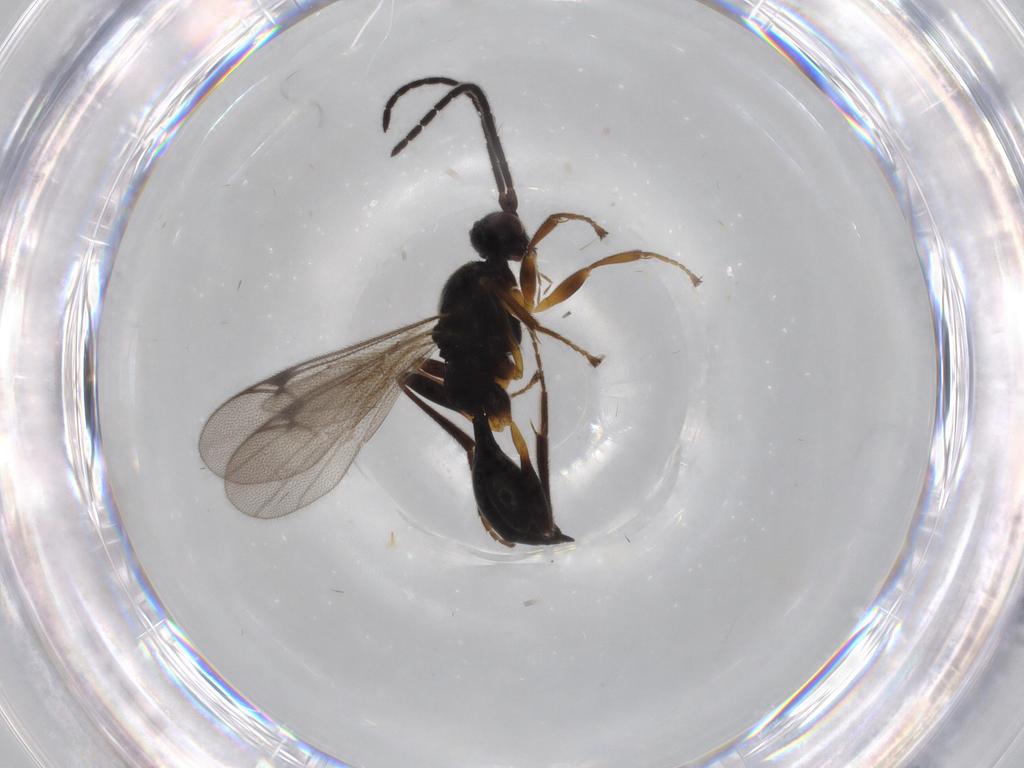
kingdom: Animalia
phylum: Arthropoda
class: Insecta
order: Hymenoptera
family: Proctotrupidae
